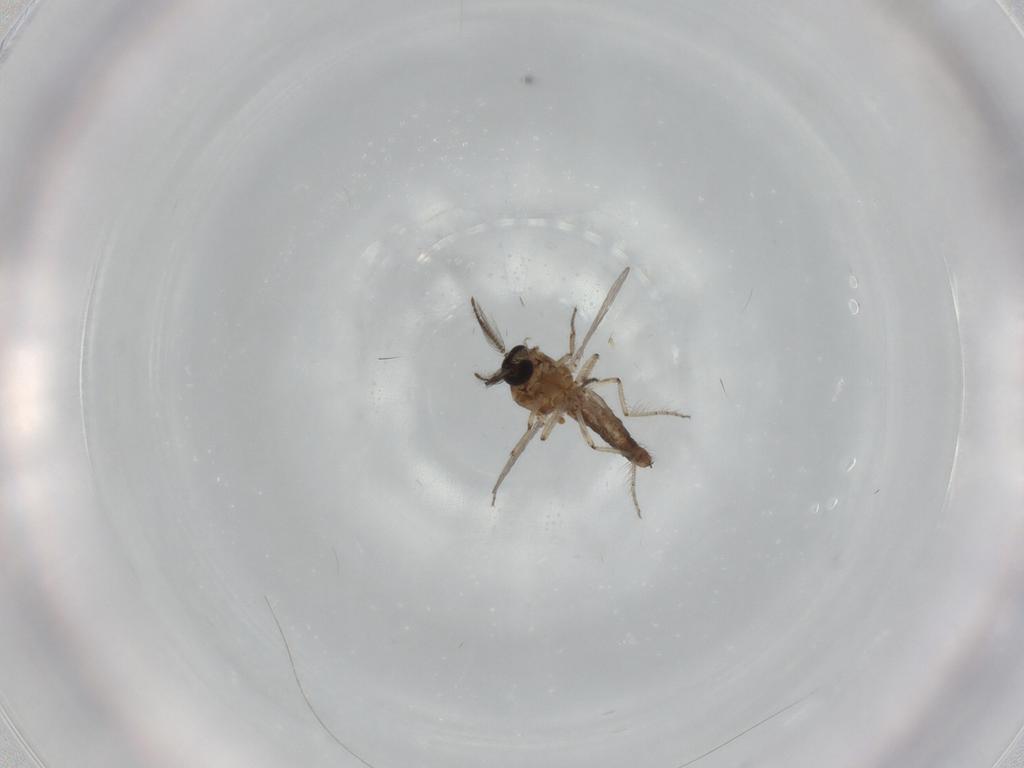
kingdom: Animalia
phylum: Arthropoda
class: Insecta
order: Diptera
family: Ceratopogonidae
